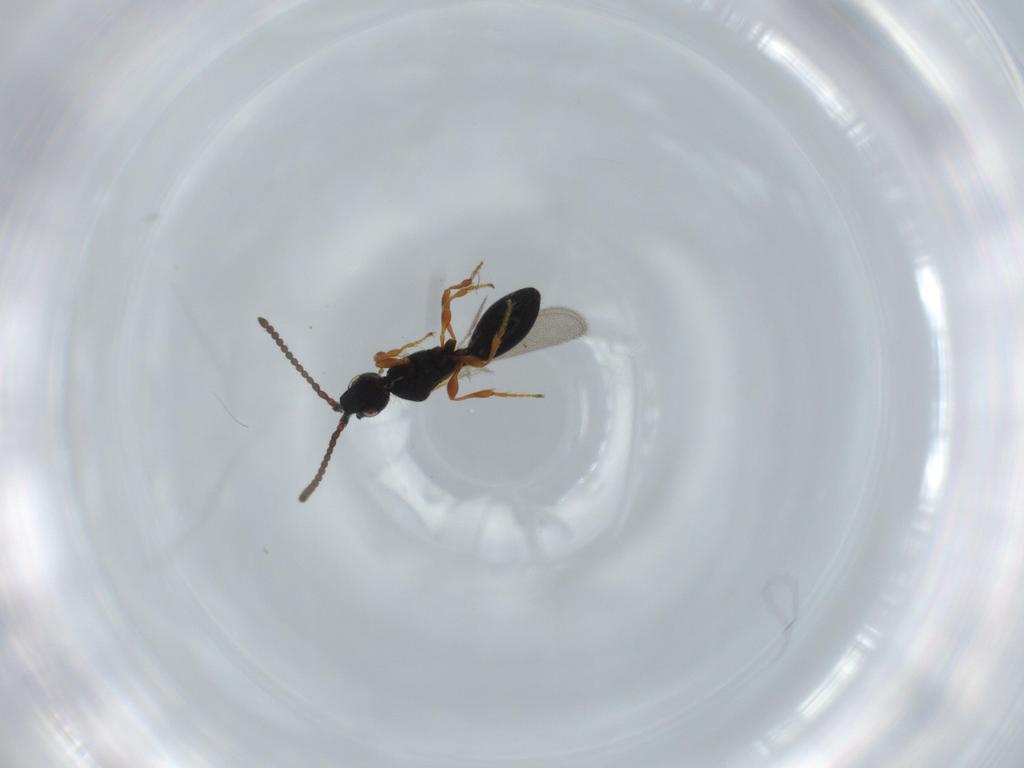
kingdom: Animalia
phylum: Arthropoda
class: Insecta
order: Hymenoptera
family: Diapriidae
